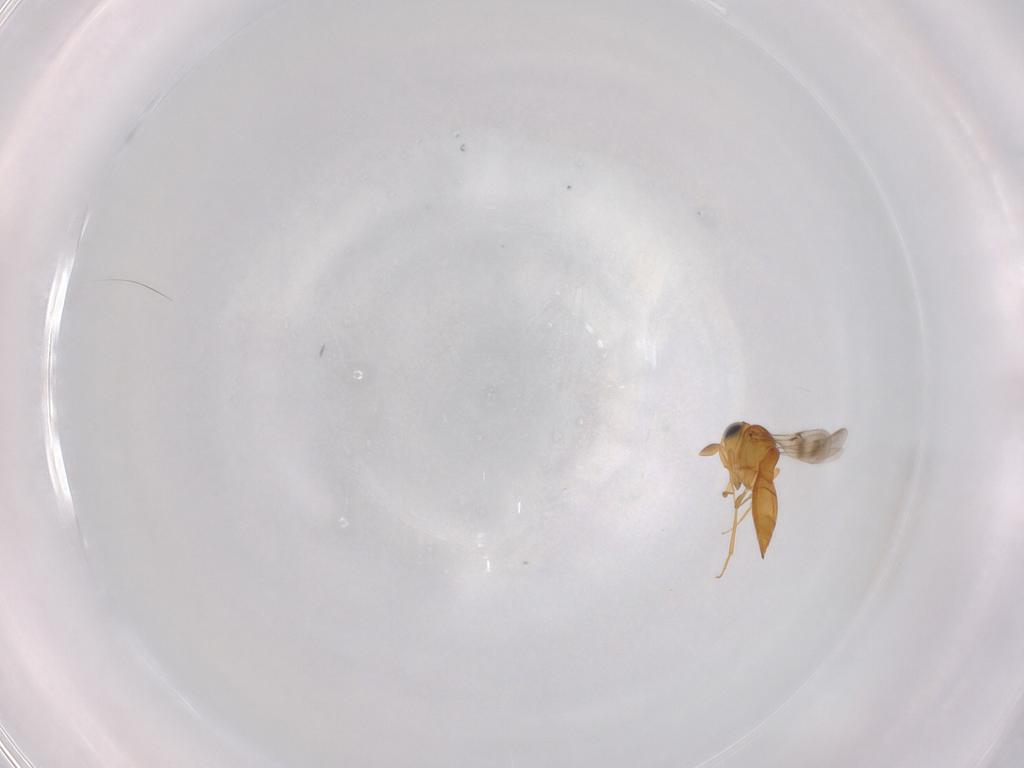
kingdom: Animalia
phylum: Arthropoda
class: Insecta
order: Hymenoptera
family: Scelionidae
